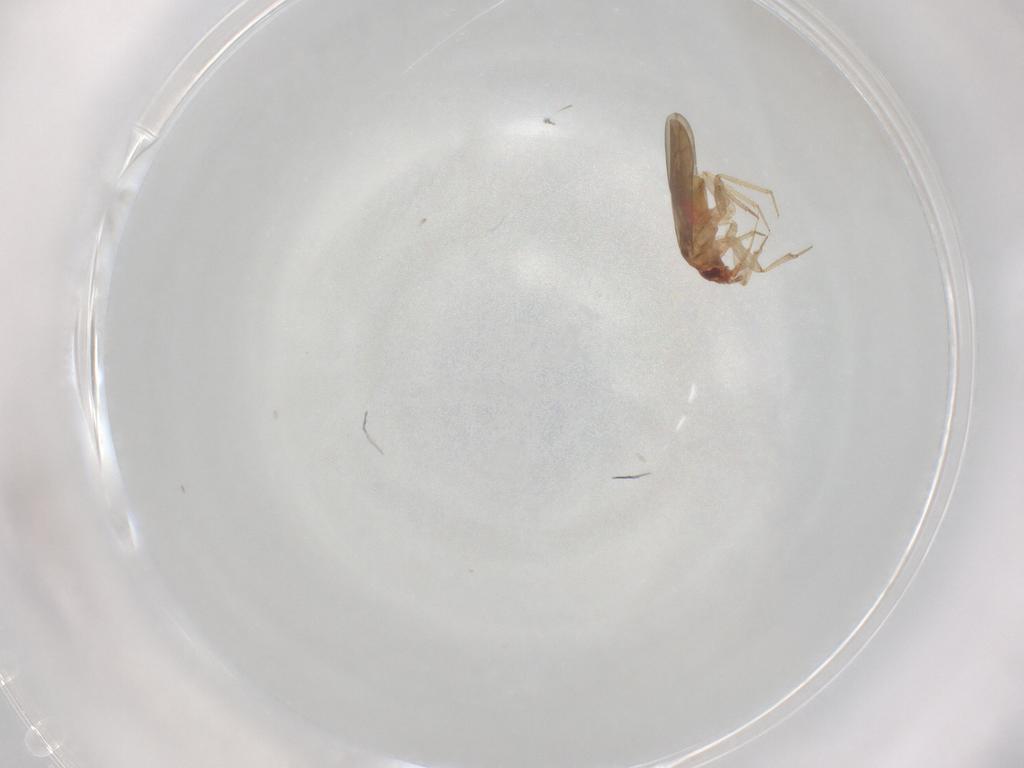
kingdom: Animalia
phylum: Arthropoda
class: Insecta
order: Hemiptera
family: Ceratocombidae
